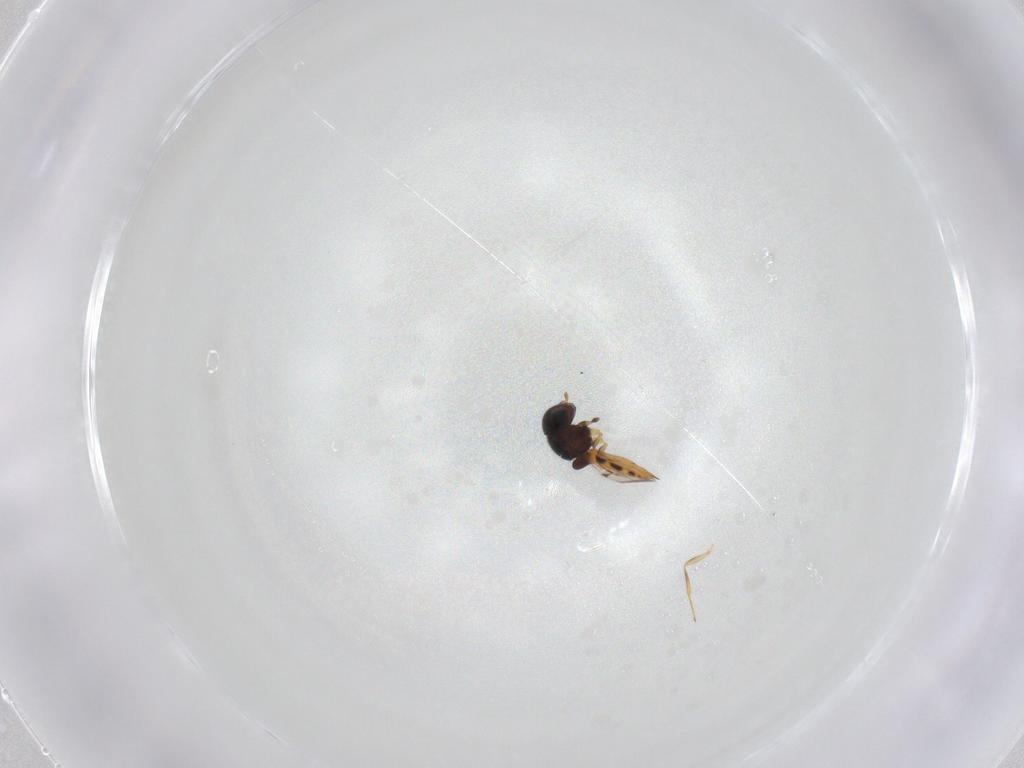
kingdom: Animalia
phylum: Arthropoda
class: Insecta
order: Hymenoptera
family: Scelionidae
